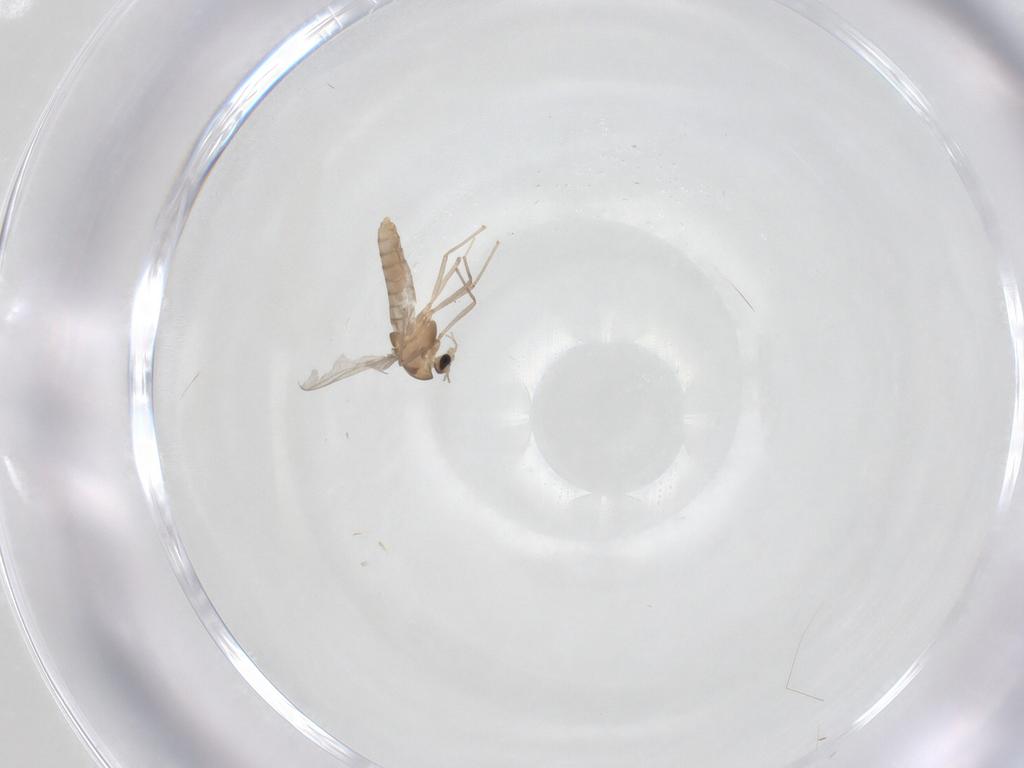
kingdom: Animalia
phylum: Arthropoda
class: Insecta
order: Diptera
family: Chironomidae
